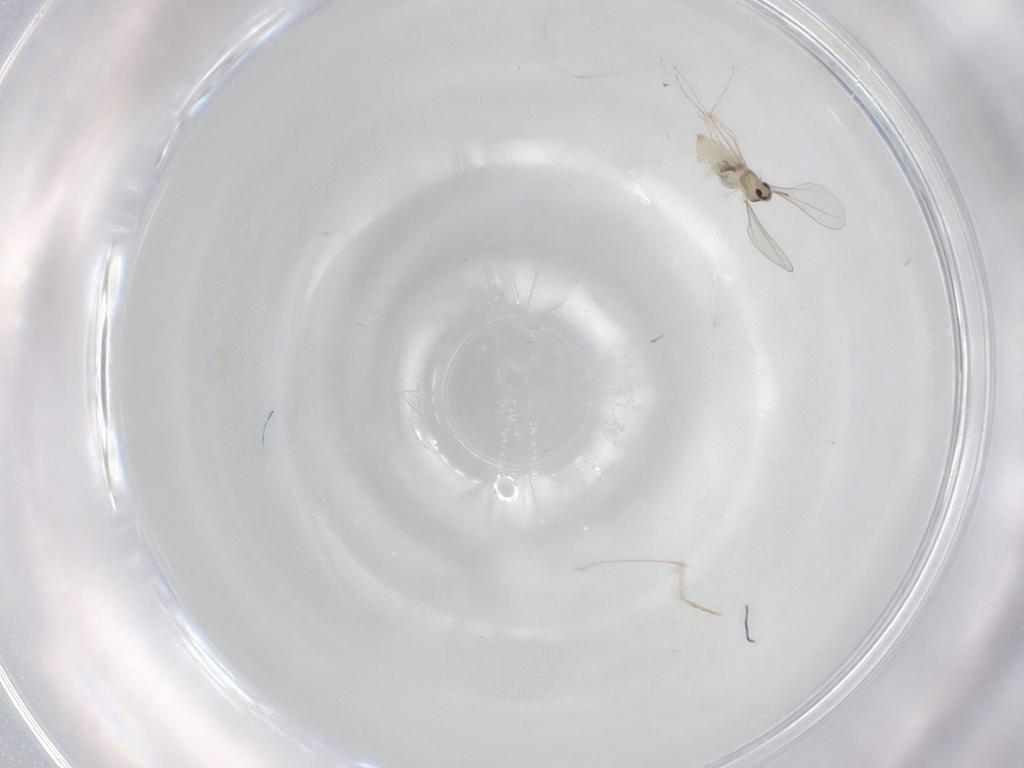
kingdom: Animalia
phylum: Arthropoda
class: Insecta
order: Diptera
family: Cecidomyiidae
